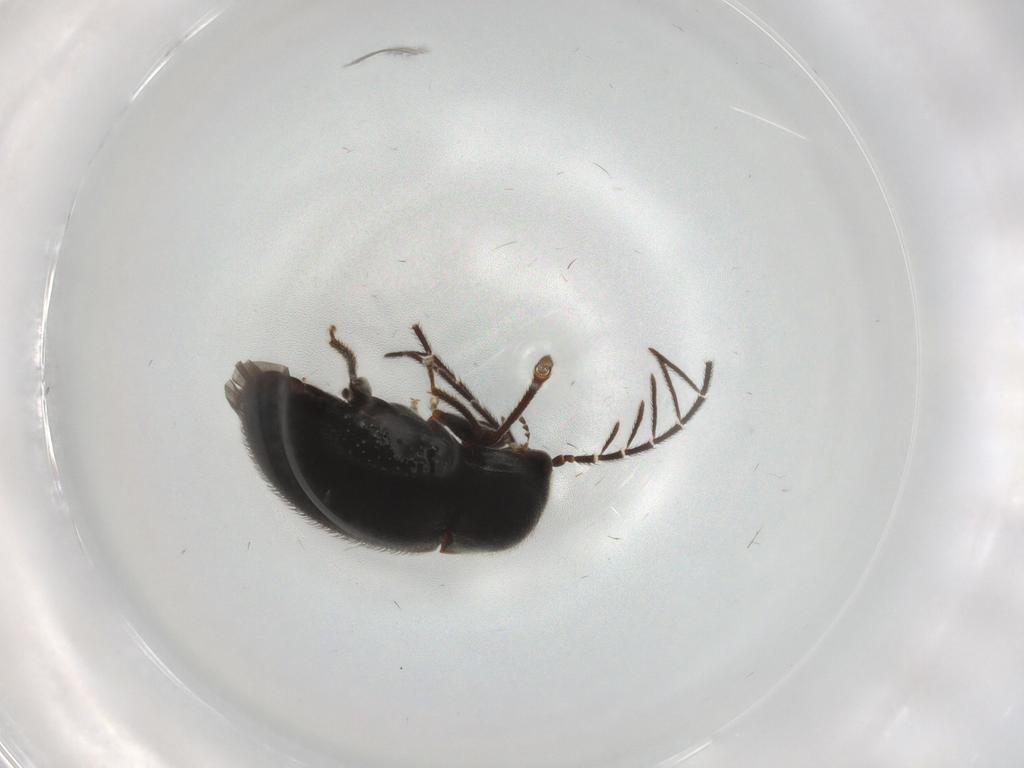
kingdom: Animalia
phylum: Arthropoda
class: Insecta
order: Coleoptera
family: Ptilodactylidae
